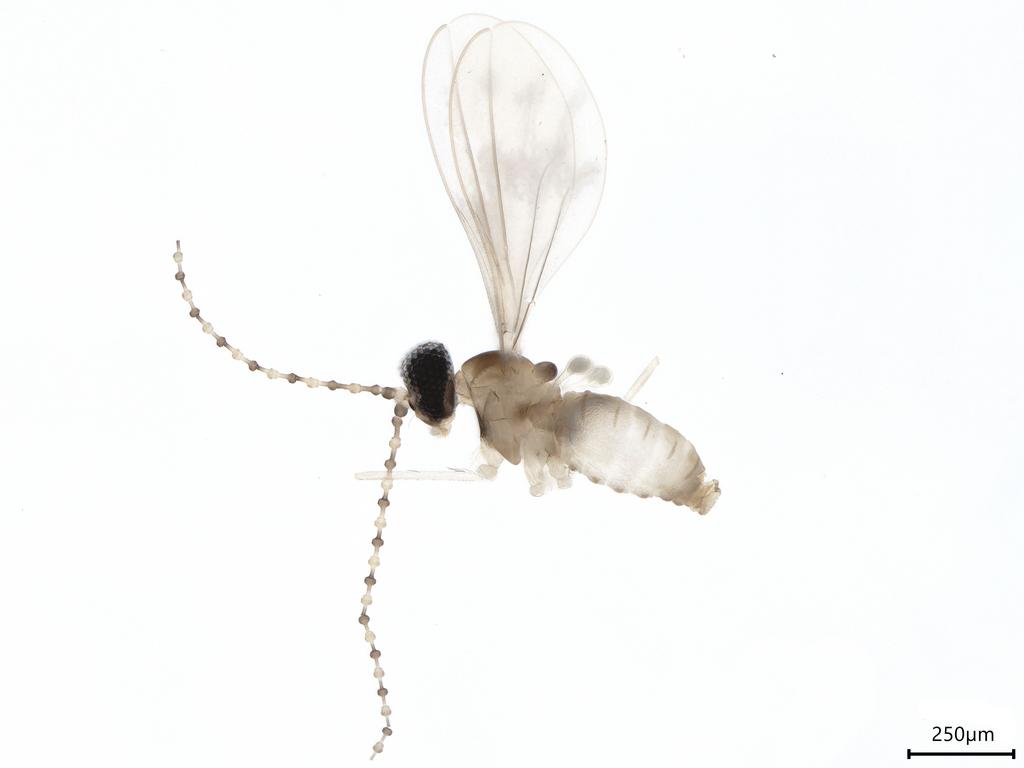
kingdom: Animalia
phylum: Arthropoda
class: Insecta
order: Diptera
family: Cecidomyiidae
